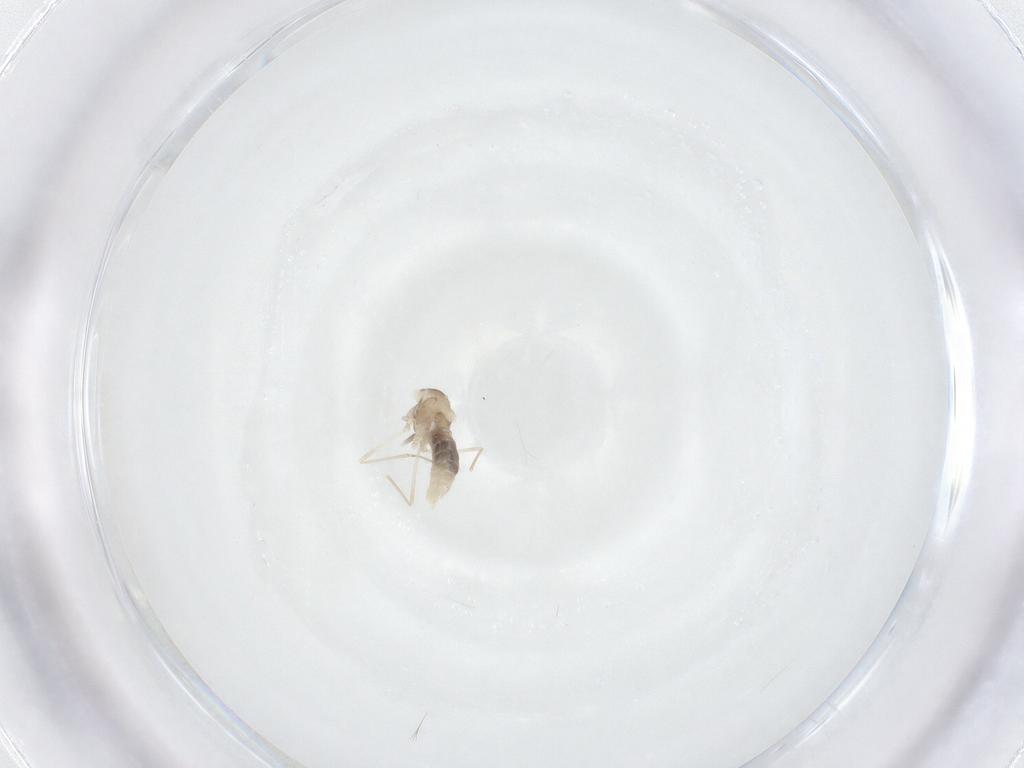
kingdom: Animalia
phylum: Arthropoda
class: Insecta
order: Diptera
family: Cecidomyiidae
